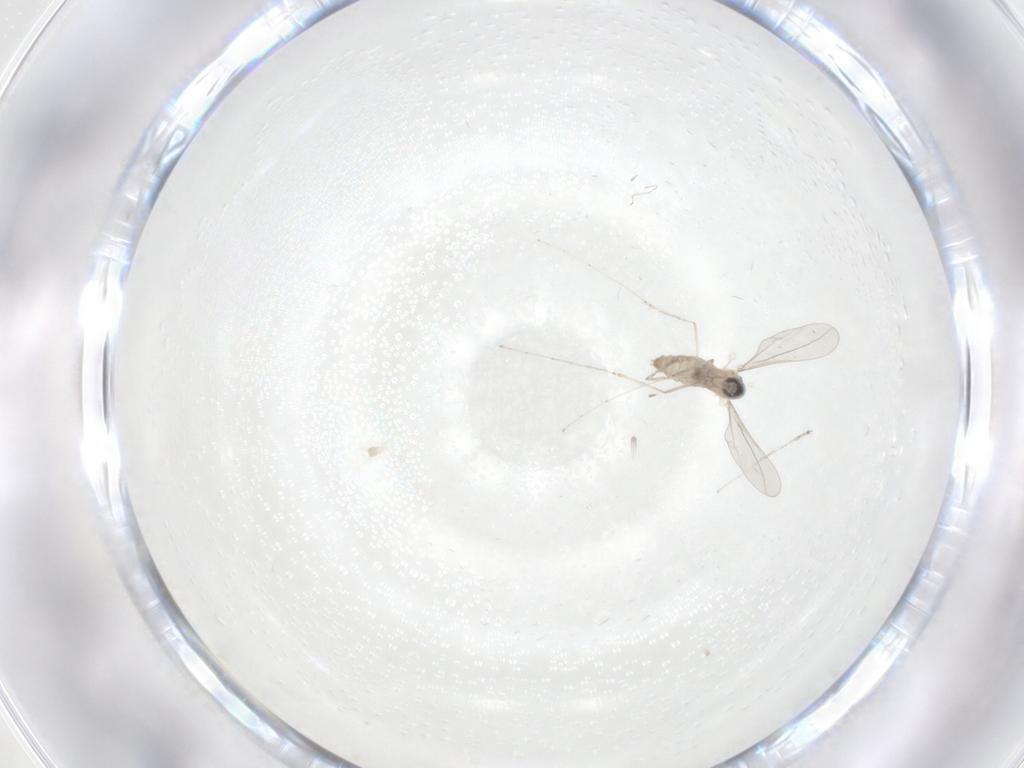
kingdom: Animalia
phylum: Arthropoda
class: Insecta
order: Diptera
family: Cecidomyiidae
